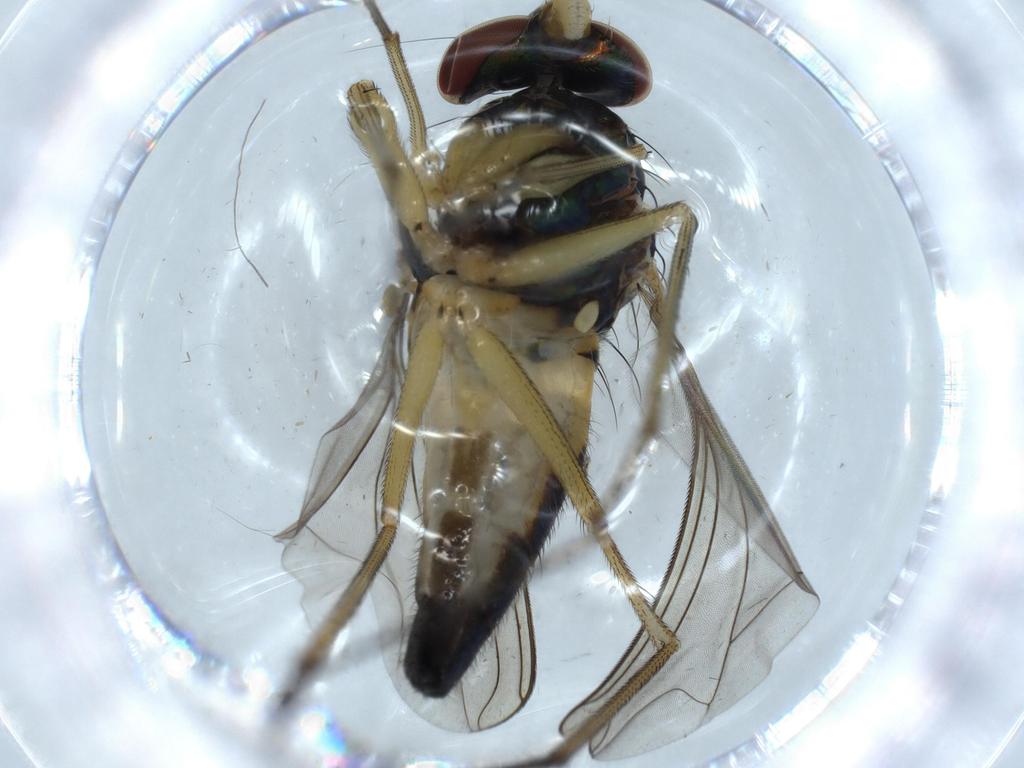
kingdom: Animalia
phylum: Arthropoda
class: Insecta
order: Diptera
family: Dolichopodidae
